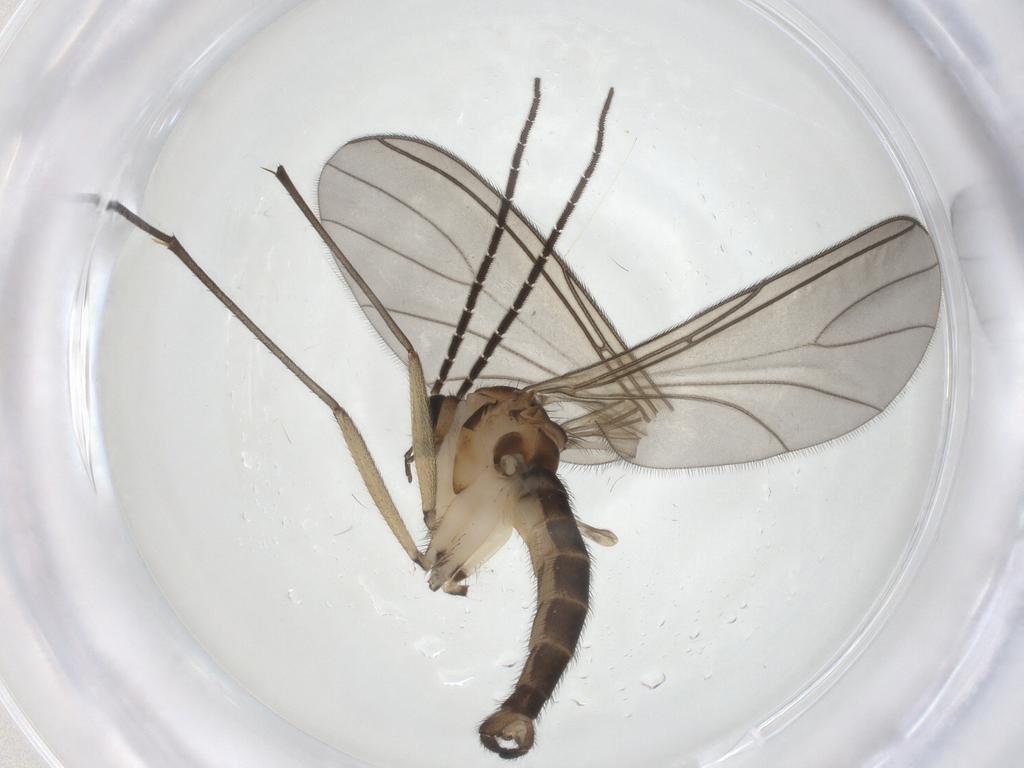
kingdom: Animalia
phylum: Arthropoda
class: Insecta
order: Diptera
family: Sciaridae
